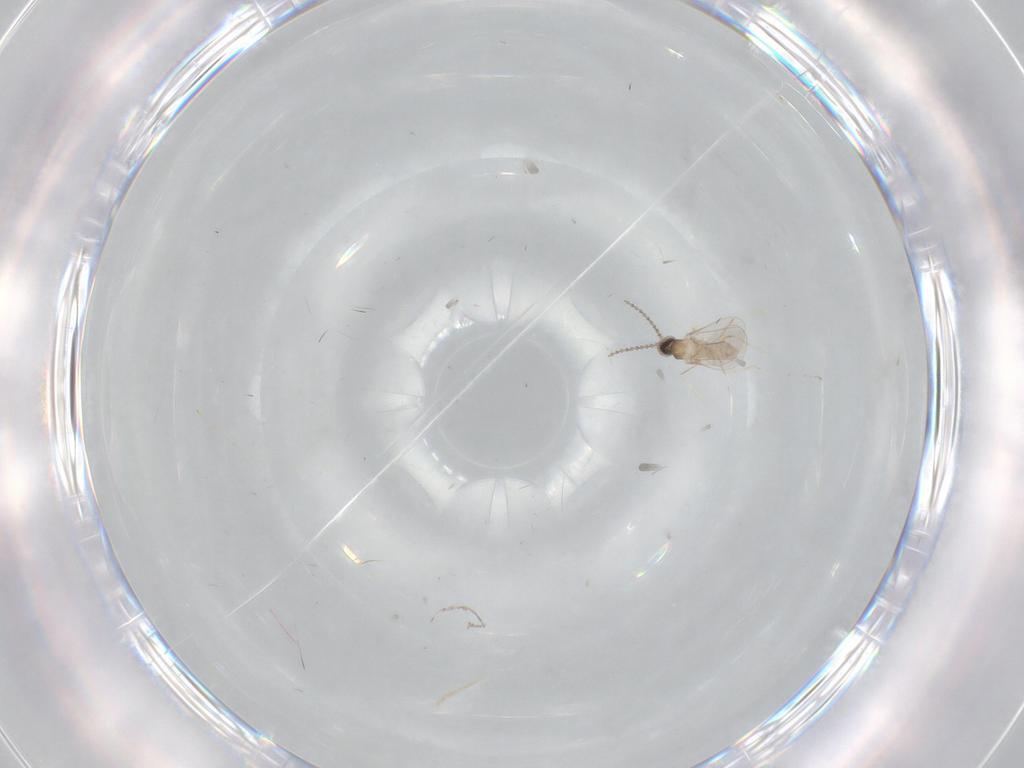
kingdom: Animalia
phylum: Arthropoda
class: Insecta
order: Diptera
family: Cecidomyiidae
